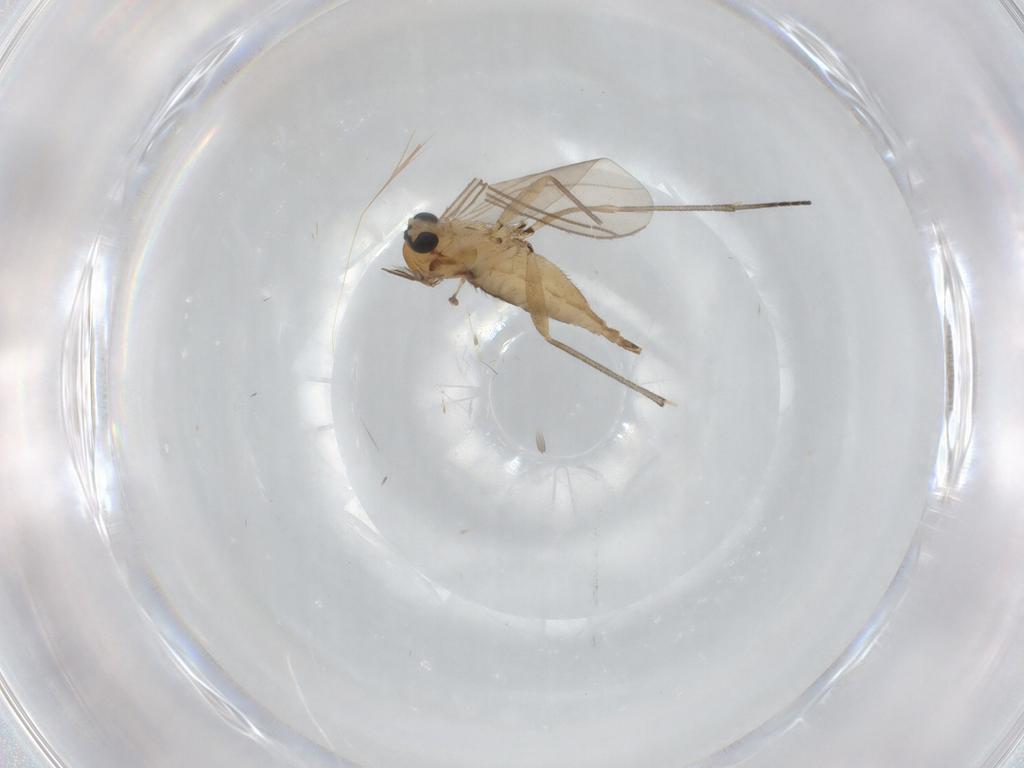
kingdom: Animalia
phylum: Arthropoda
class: Insecta
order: Diptera
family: Sciaridae
